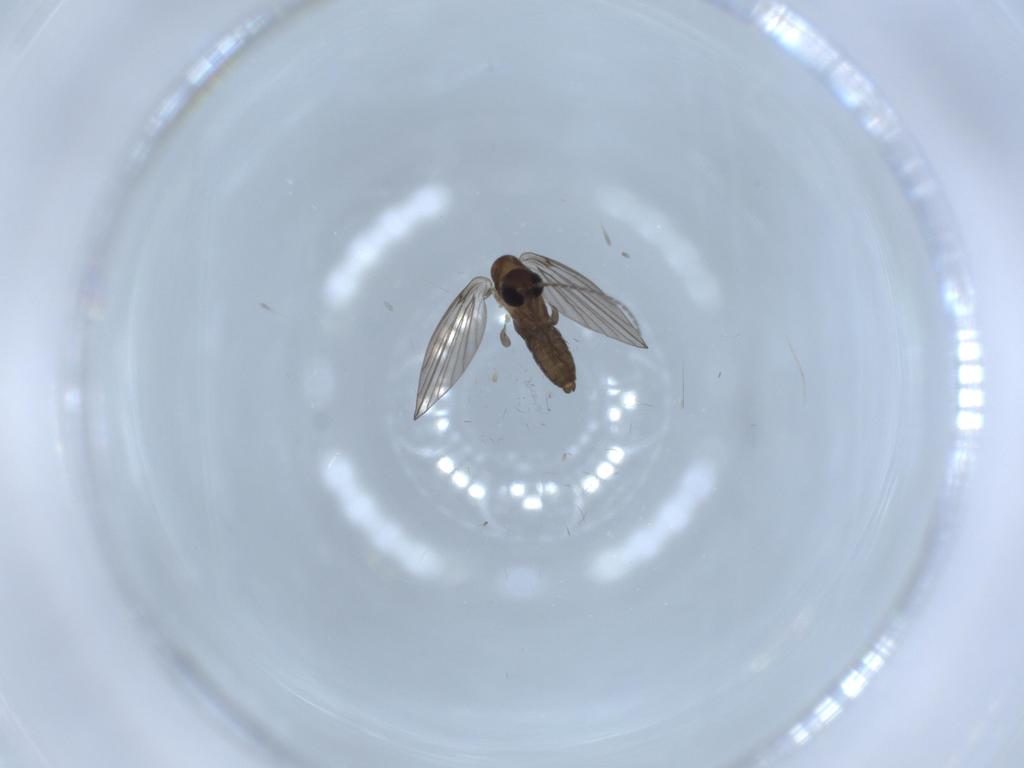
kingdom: Animalia
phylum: Arthropoda
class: Insecta
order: Diptera
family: Psychodidae
